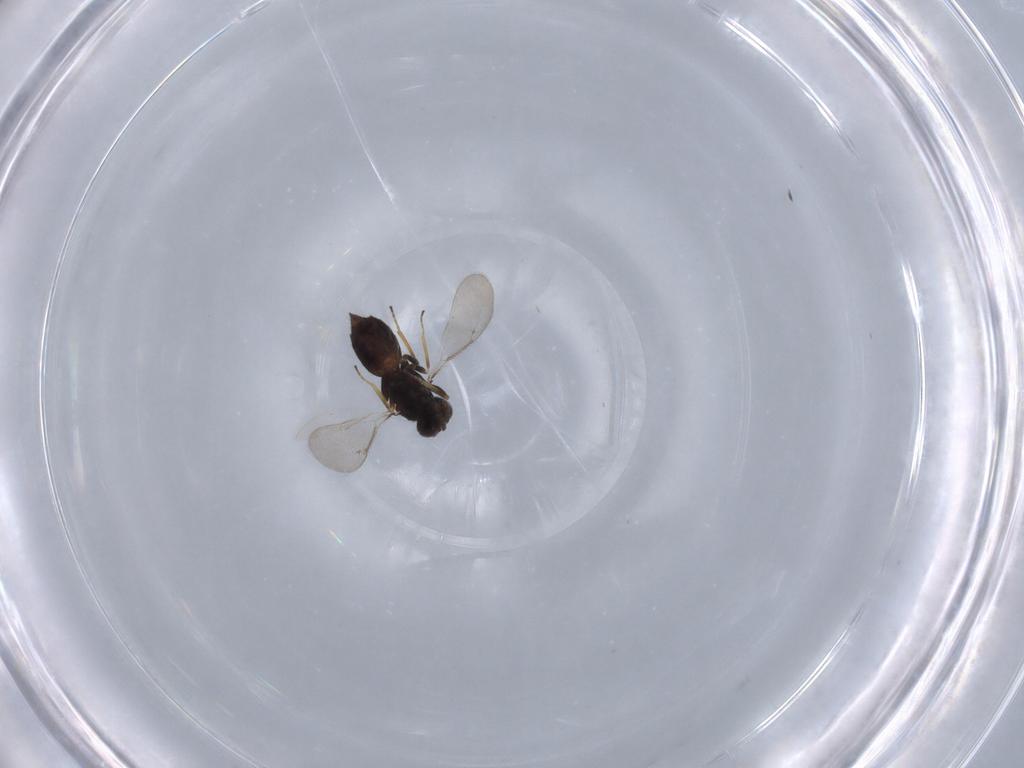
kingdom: Animalia
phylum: Arthropoda
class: Insecta
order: Hymenoptera
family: Eulophidae
